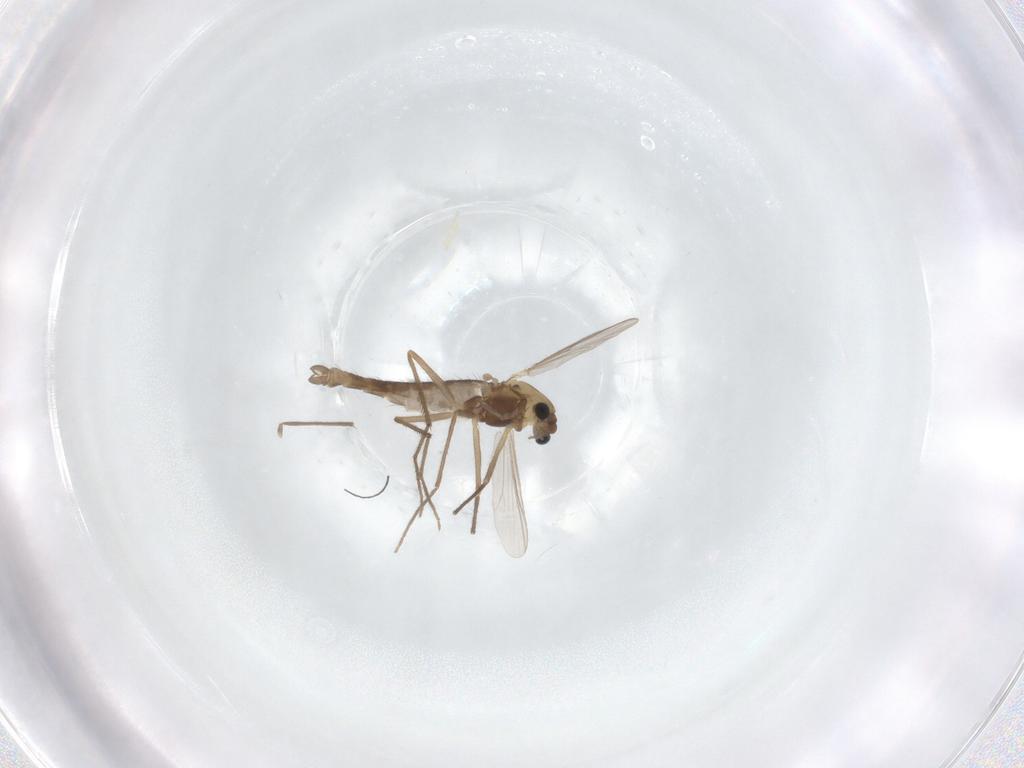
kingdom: Animalia
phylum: Arthropoda
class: Insecta
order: Diptera
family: Chironomidae
